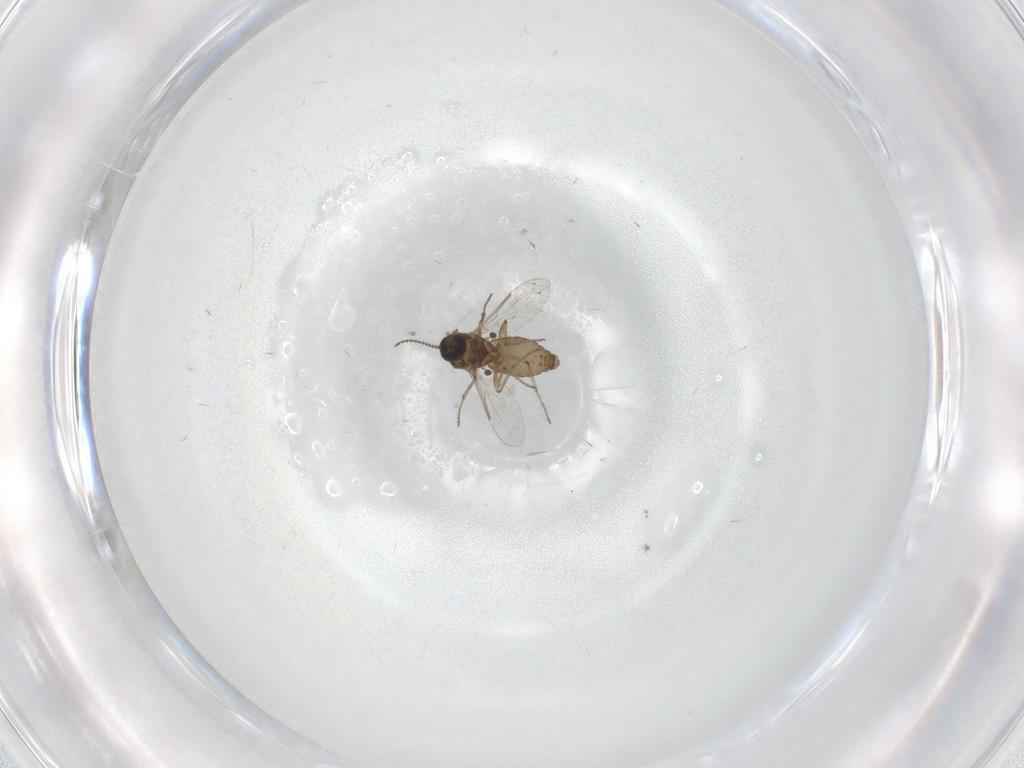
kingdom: Animalia
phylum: Arthropoda
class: Insecta
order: Diptera
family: Ceratopogonidae
